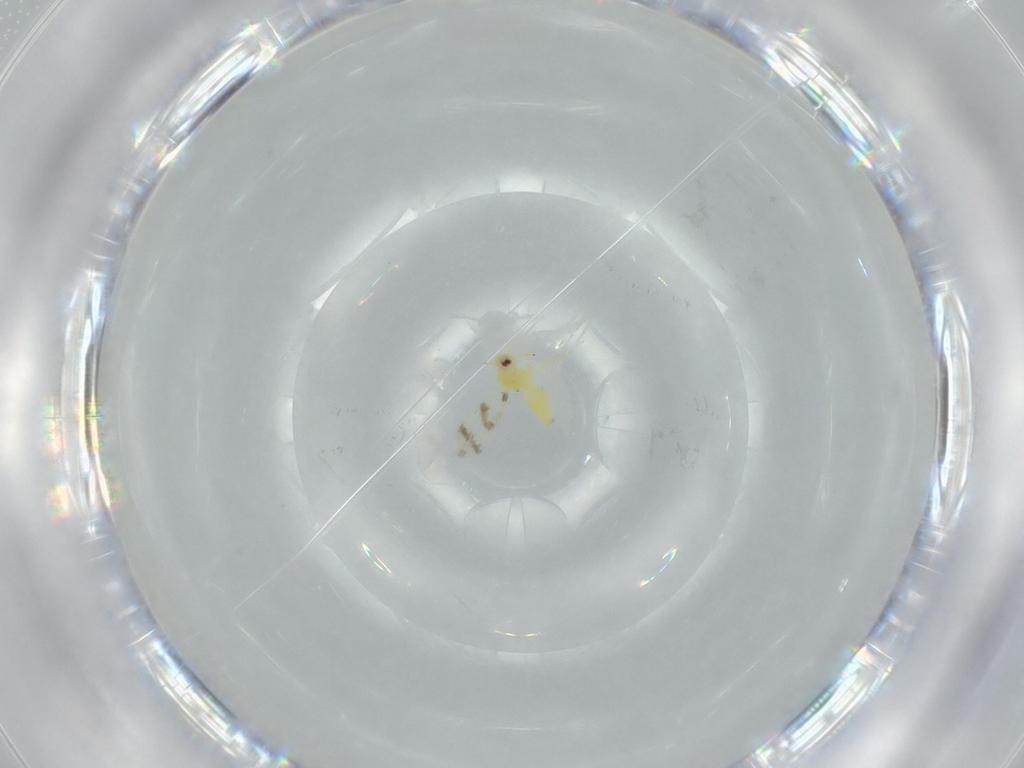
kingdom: Animalia
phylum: Arthropoda
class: Insecta
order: Hemiptera
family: Aleyrodidae
